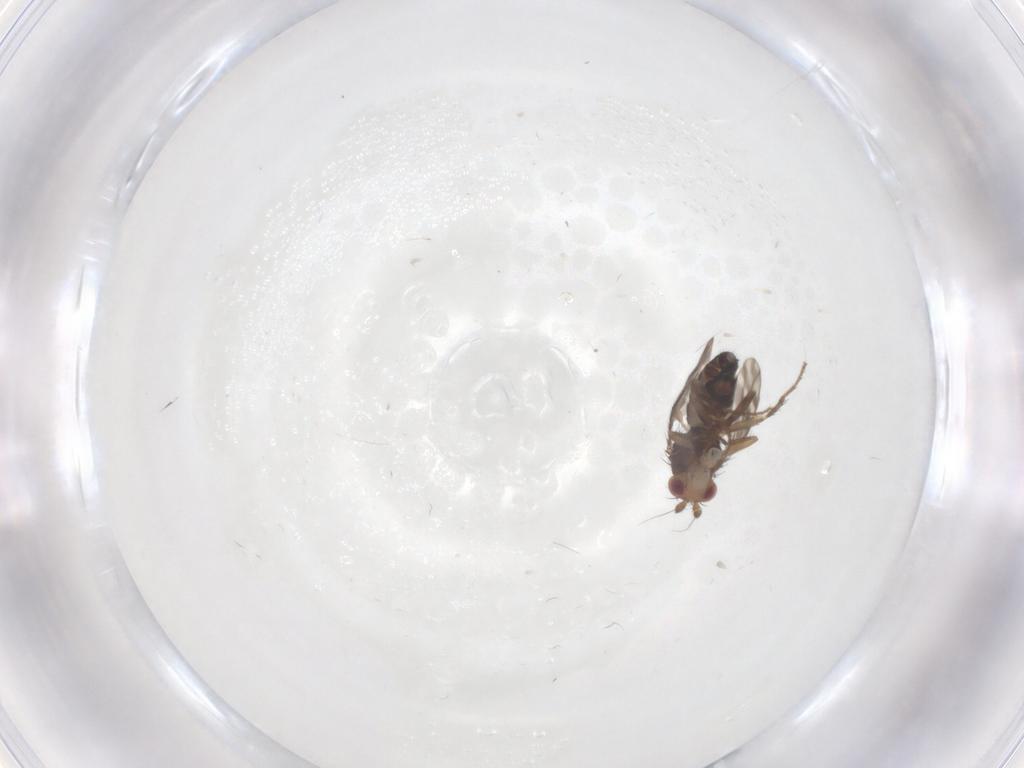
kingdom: Animalia
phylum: Arthropoda
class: Insecta
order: Diptera
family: Sphaeroceridae
